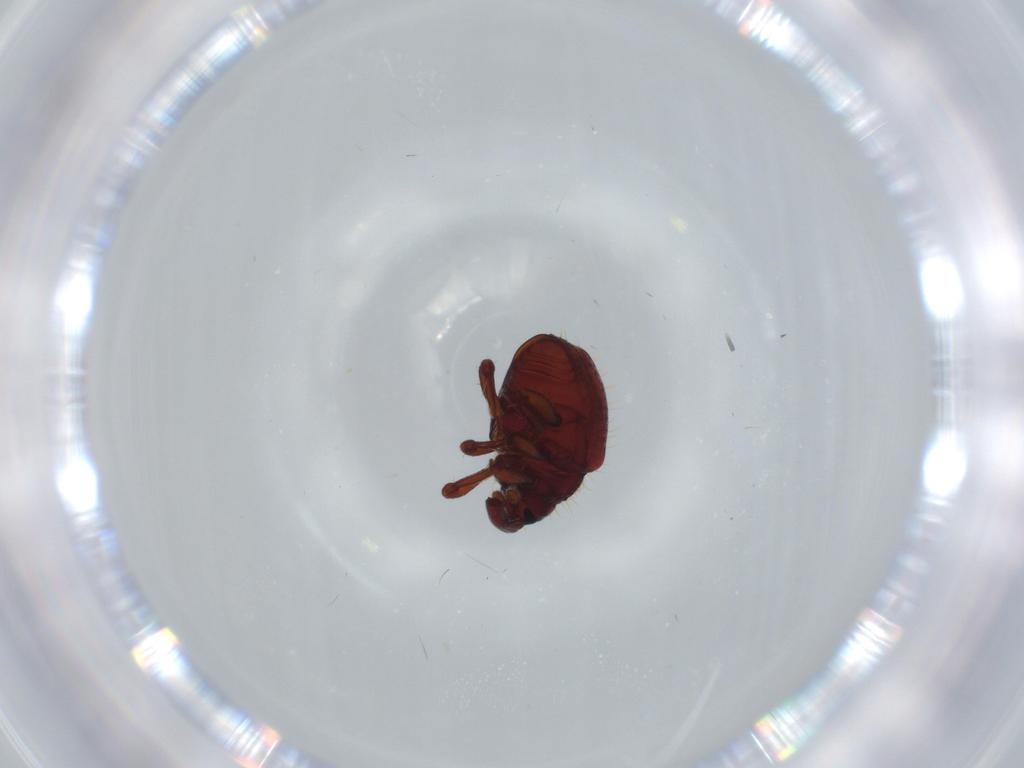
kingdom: Animalia
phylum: Arthropoda
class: Insecta
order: Coleoptera
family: Curculionidae
